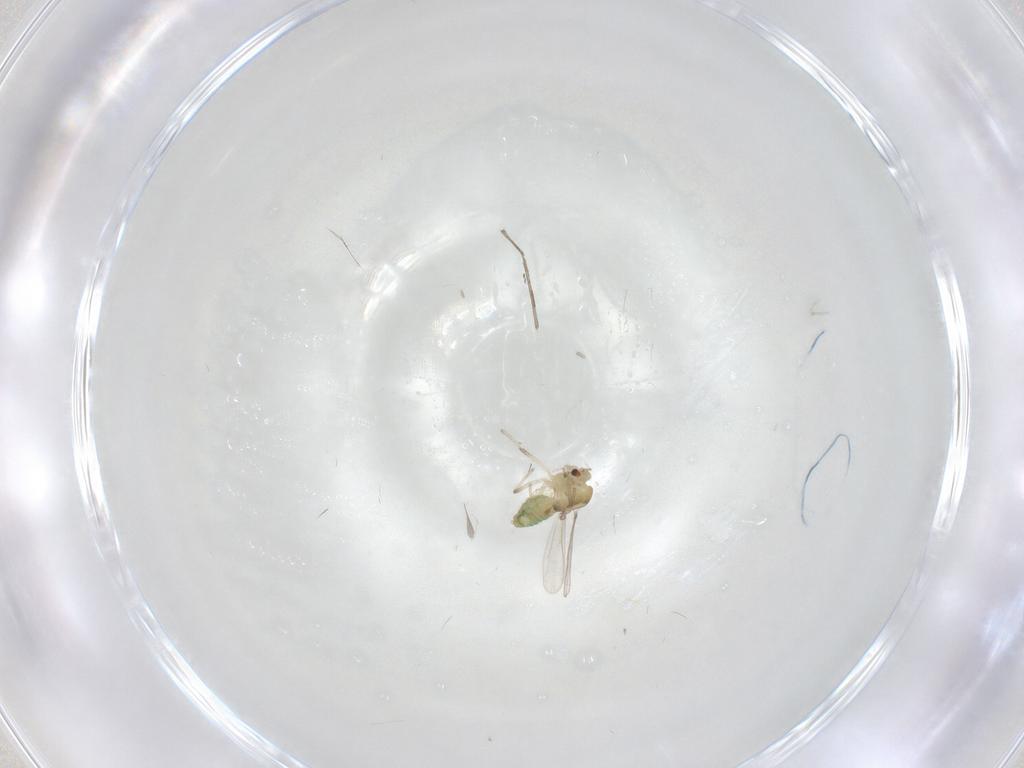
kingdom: Animalia
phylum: Arthropoda
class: Insecta
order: Diptera
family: Chironomidae
